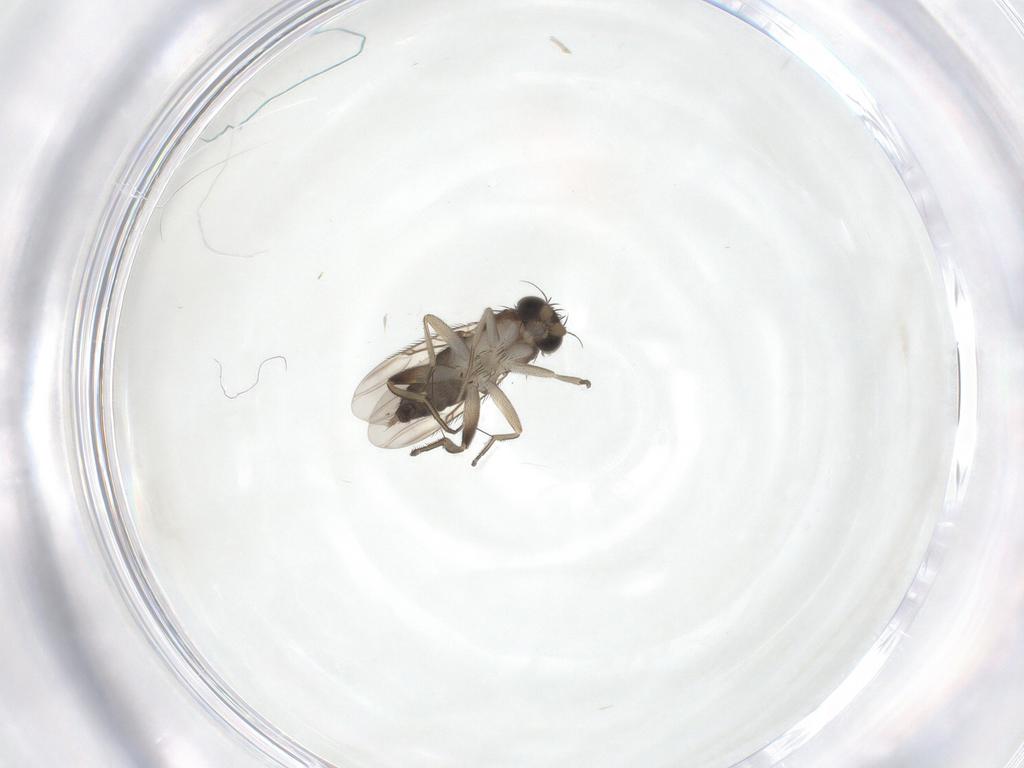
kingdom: Animalia
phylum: Arthropoda
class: Insecta
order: Diptera
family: Phoridae
